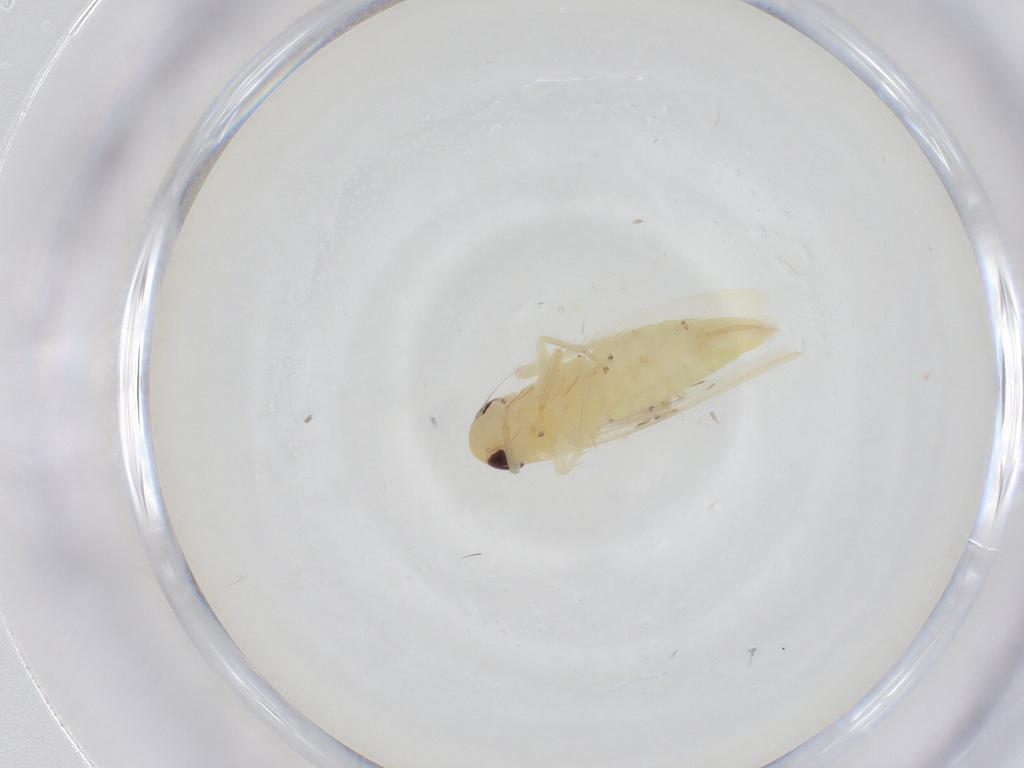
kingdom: Animalia
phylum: Arthropoda
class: Insecta
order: Hemiptera
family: Cicadellidae
